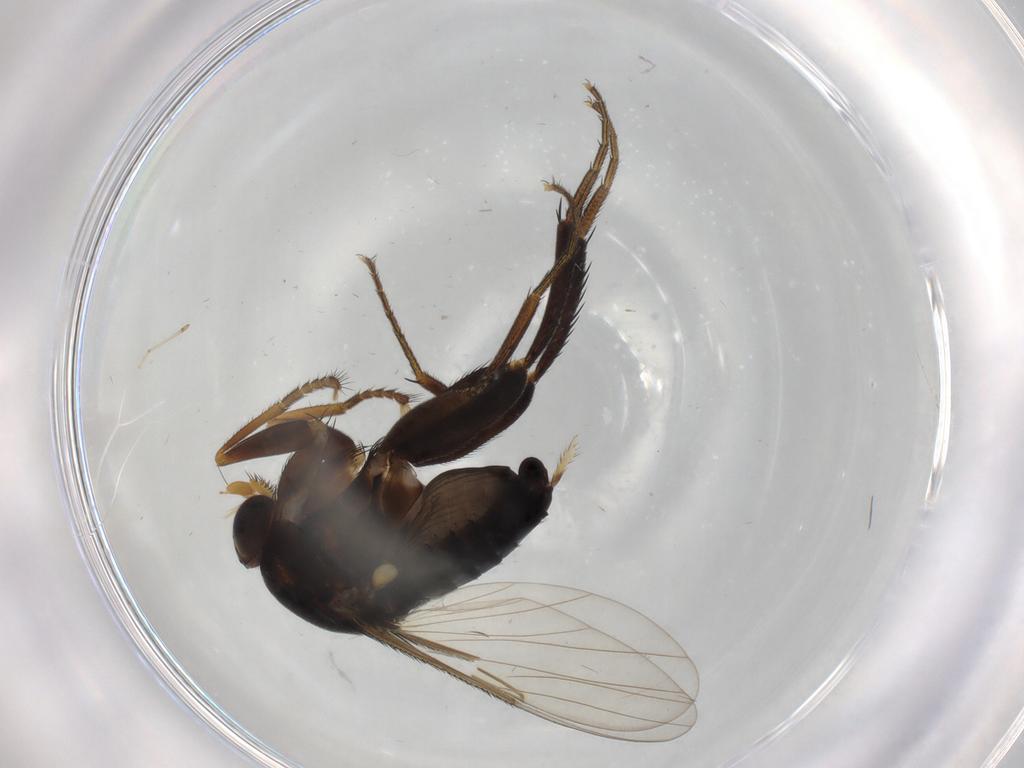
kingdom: Animalia
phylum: Arthropoda
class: Insecta
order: Diptera
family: Phoridae
